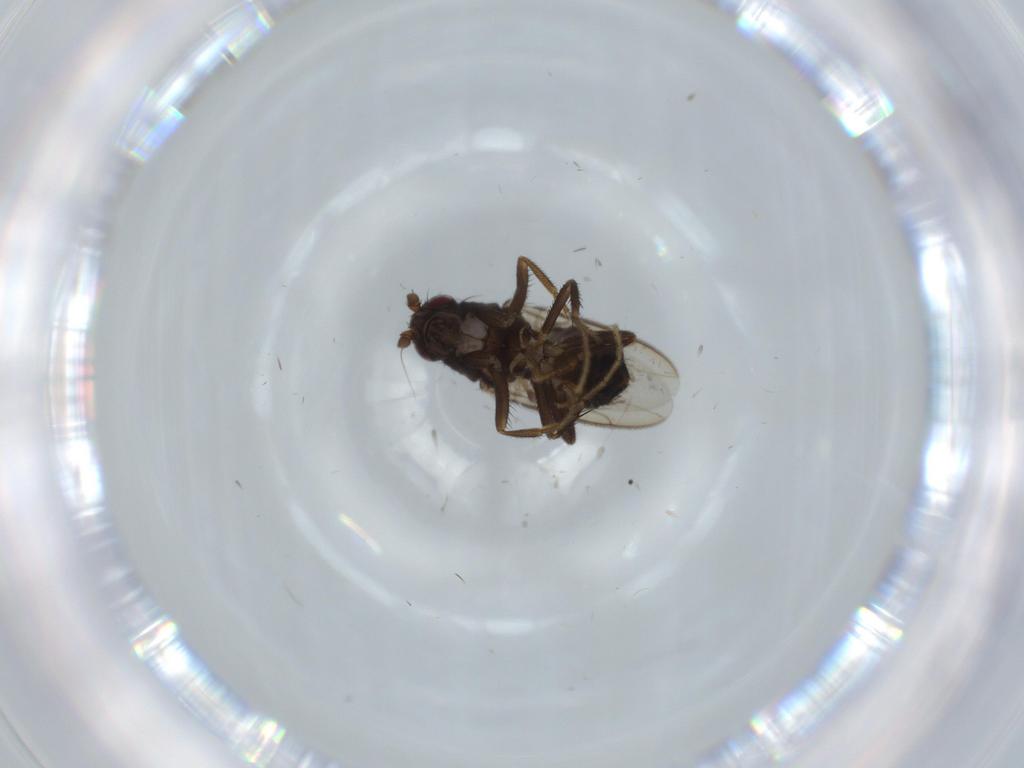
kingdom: Animalia
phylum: Arthropoda
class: Insecta
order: Diptera
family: Sphaeroceridae
